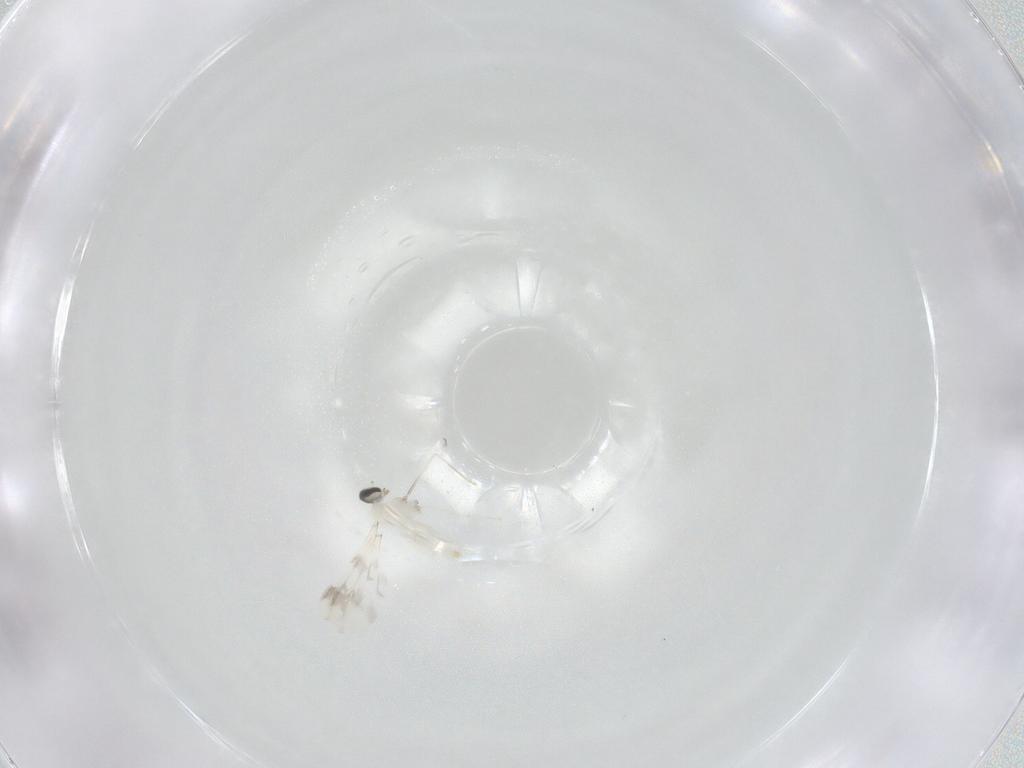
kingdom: Animalia
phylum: Arthropoda
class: Insecta
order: Diptera
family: Cecidomyiidae
